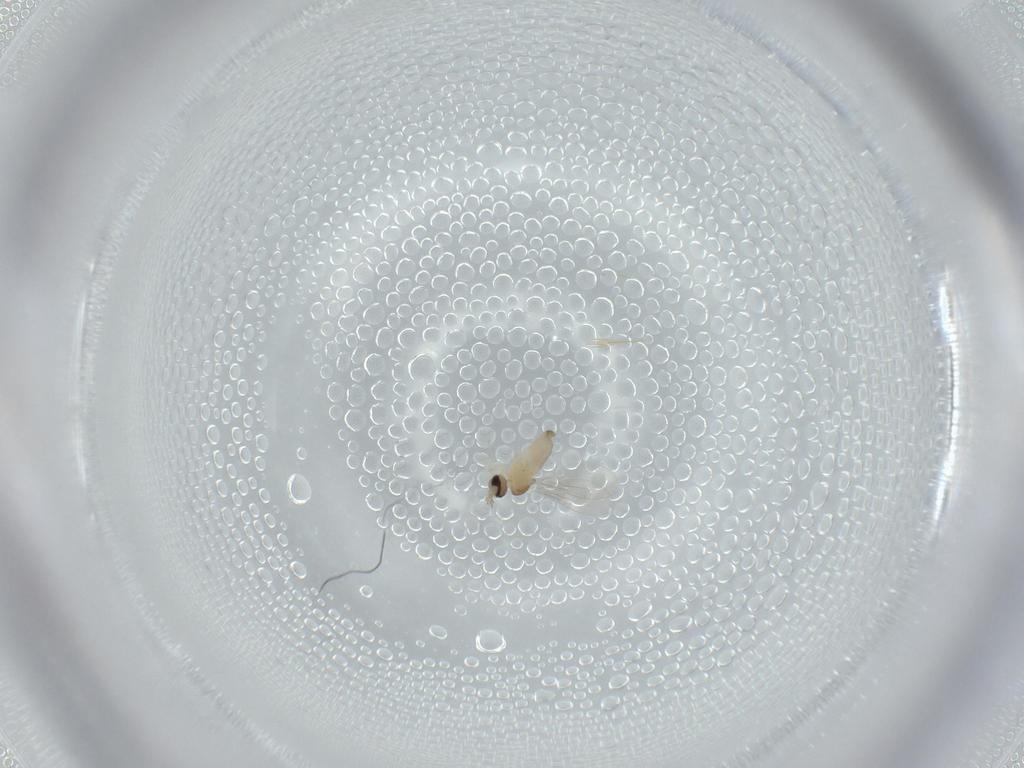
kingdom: Animalia
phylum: Arthropoda
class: Insecta
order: Diptera
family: Cecidomyiidae
